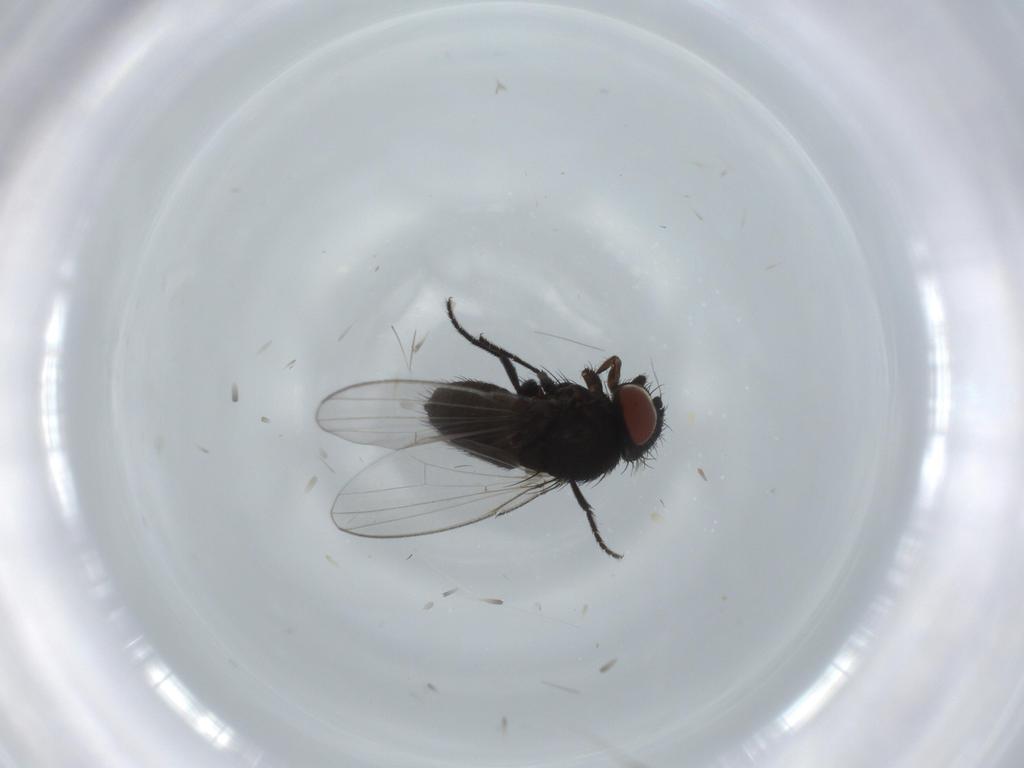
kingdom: Animalia
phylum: Arthropoda
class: Insecta
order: Diptera
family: Milichiidae
